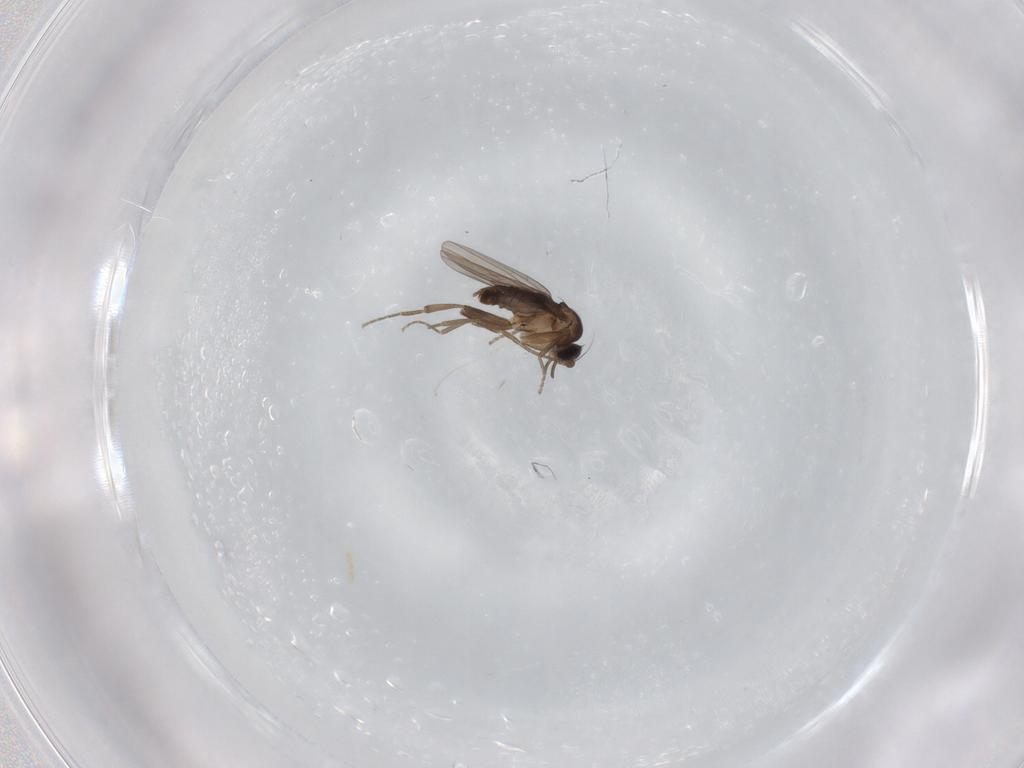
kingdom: Animalia
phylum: Arthropoda
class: Insecta
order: Diptera
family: Cecidomyiidae
